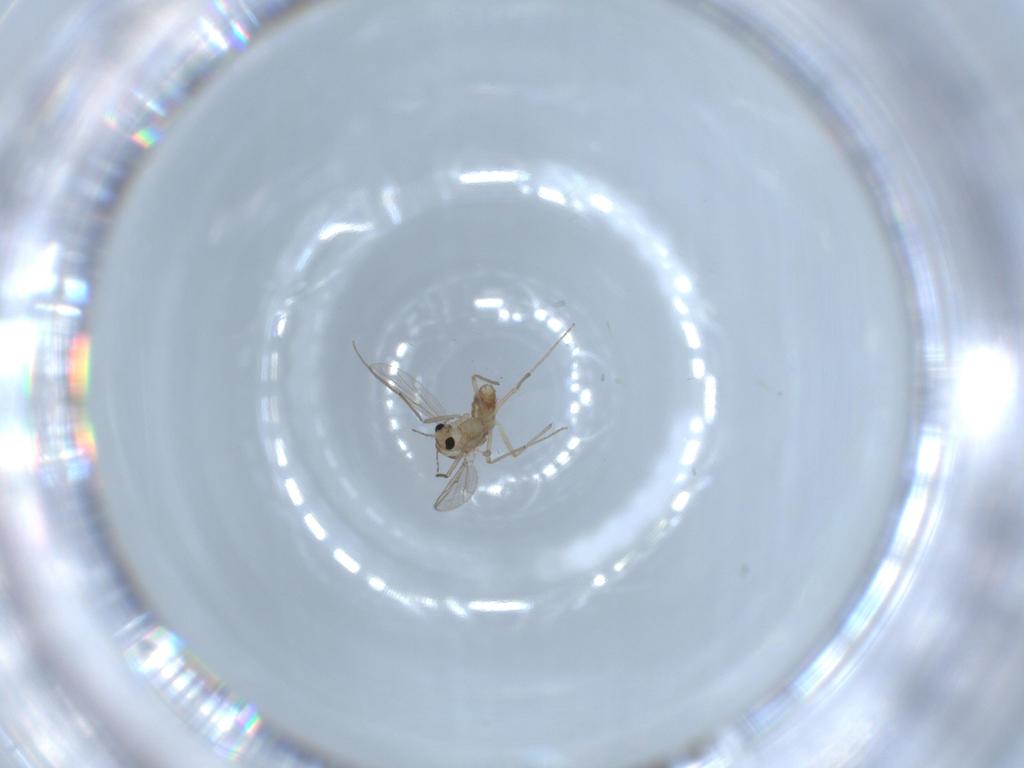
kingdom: Animalia
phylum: Arthropoda
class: Insecta
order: Diptera
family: Chironomidae
